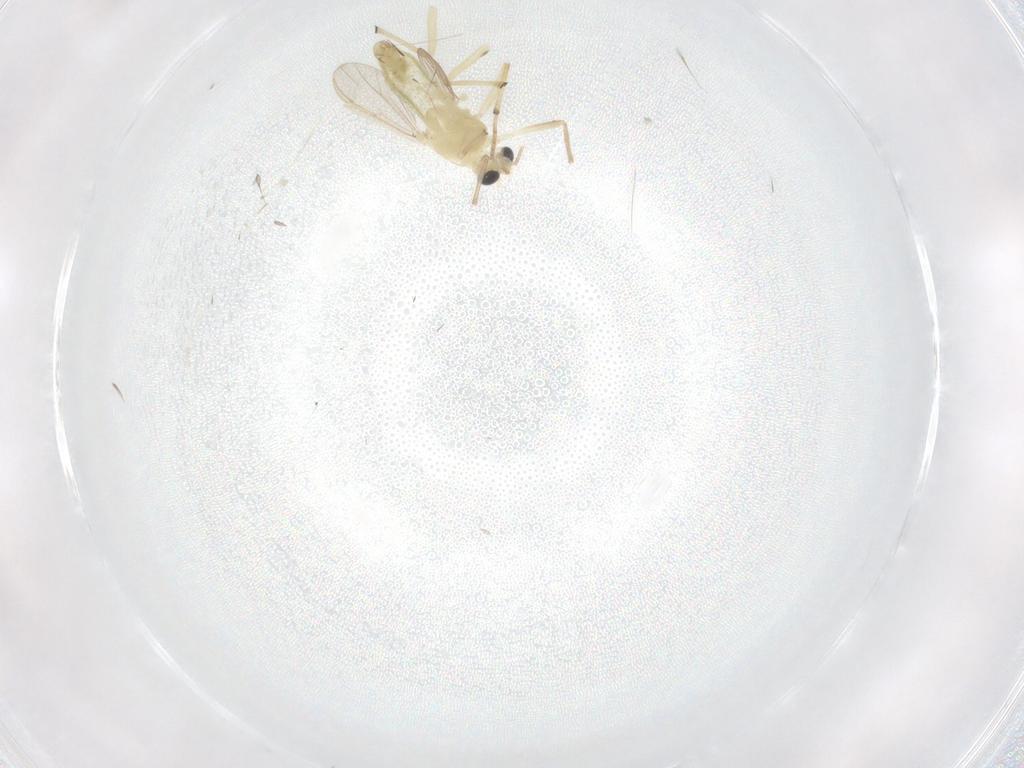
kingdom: Animalia
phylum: Arthropoda
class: Insecta
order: Diptera
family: Chironomidae
